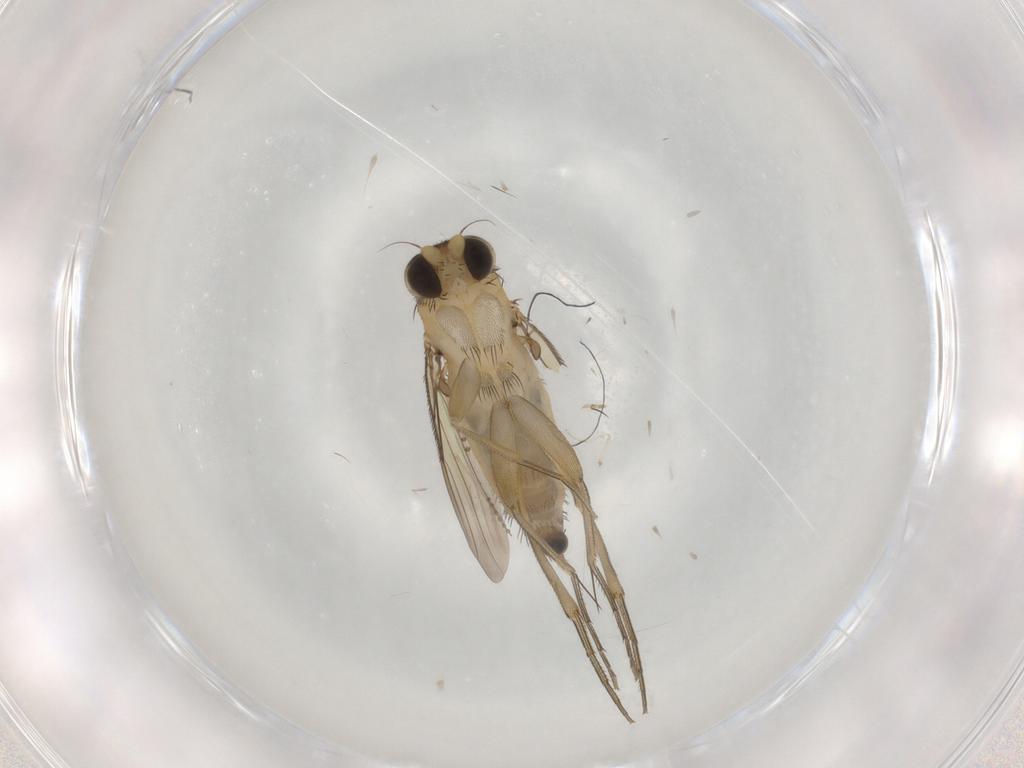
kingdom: Animalia
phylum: Arthropoda
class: Insecta
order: Diptera
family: Phoridae
